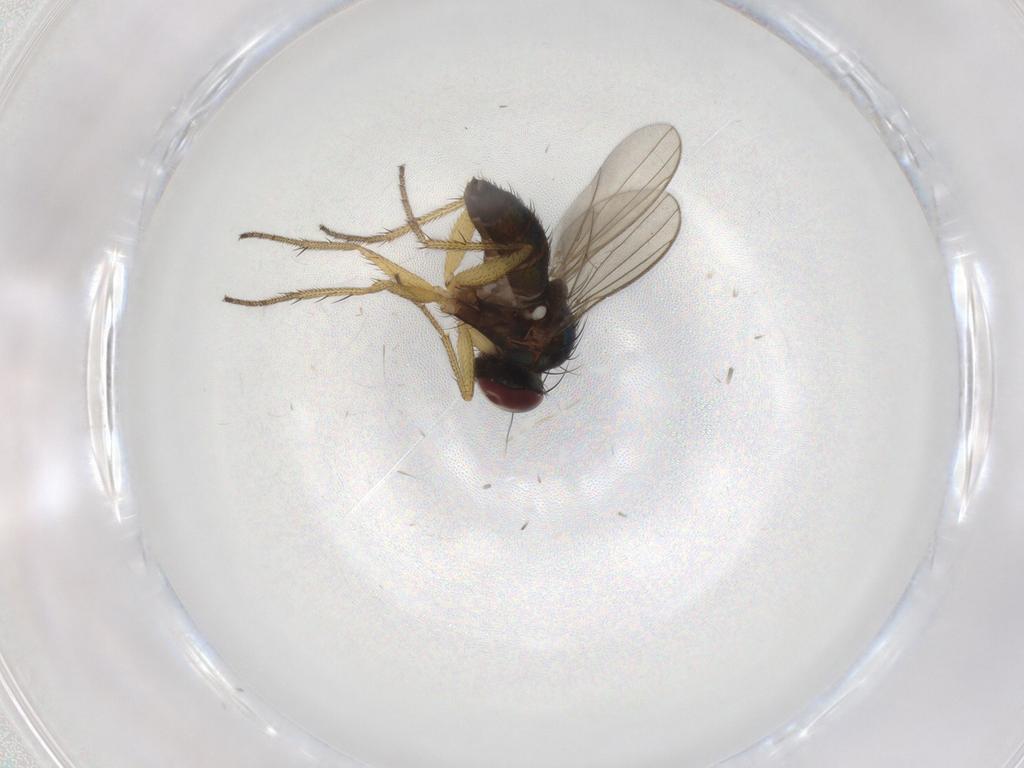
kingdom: Animalia
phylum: Arthropoda
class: Insecta
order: Diptera
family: Dolichopodidae
